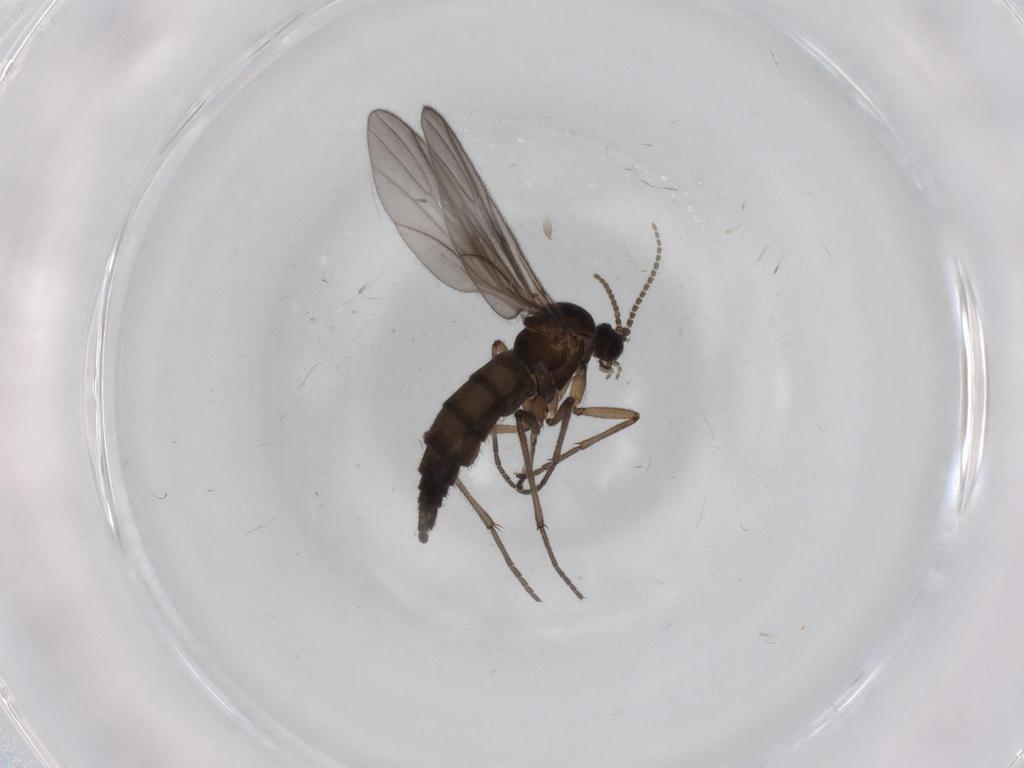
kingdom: Animalia
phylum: Arthropoda
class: Insecta
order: Diptera
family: Sciaridae
